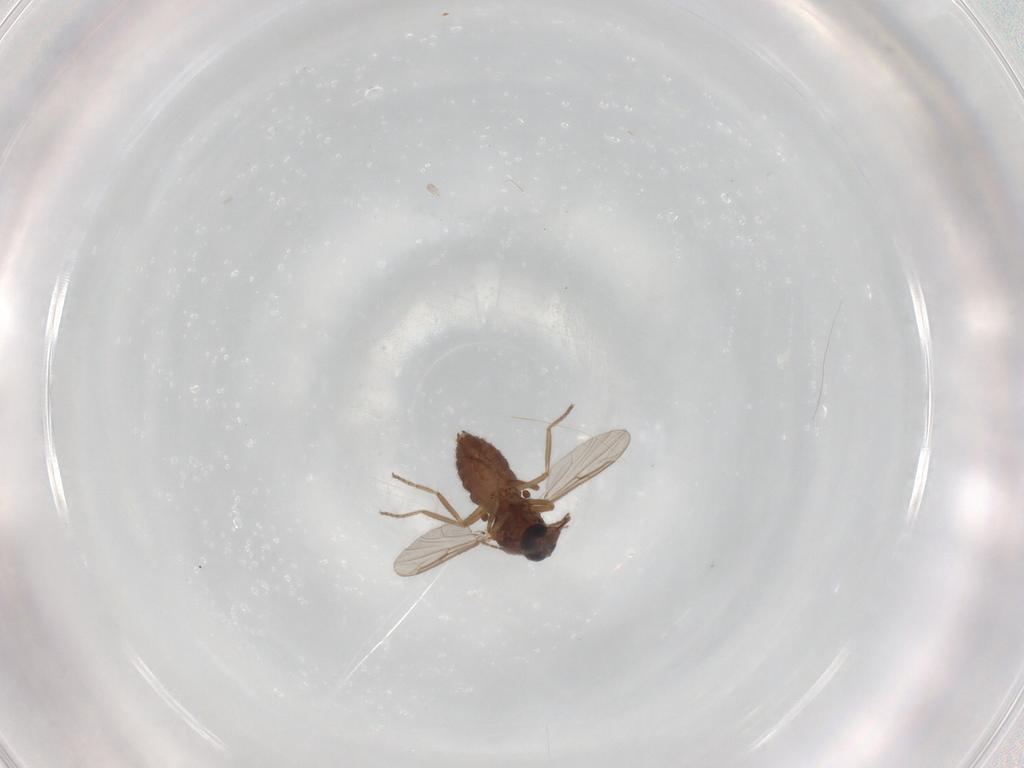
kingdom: Animalia
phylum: Arthropoda
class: Insecta
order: Diptera
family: Ceratopogonidae
